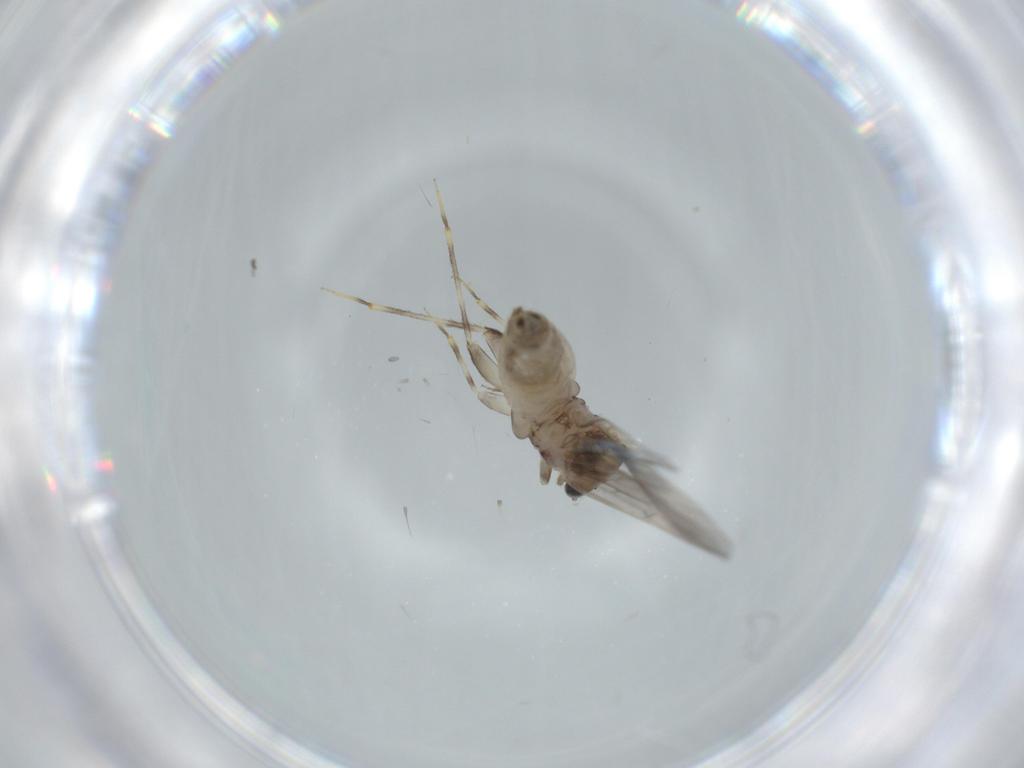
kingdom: Animalia
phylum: Arthropoda
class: Insecta
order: Psocodea
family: Lepidopsocidae
